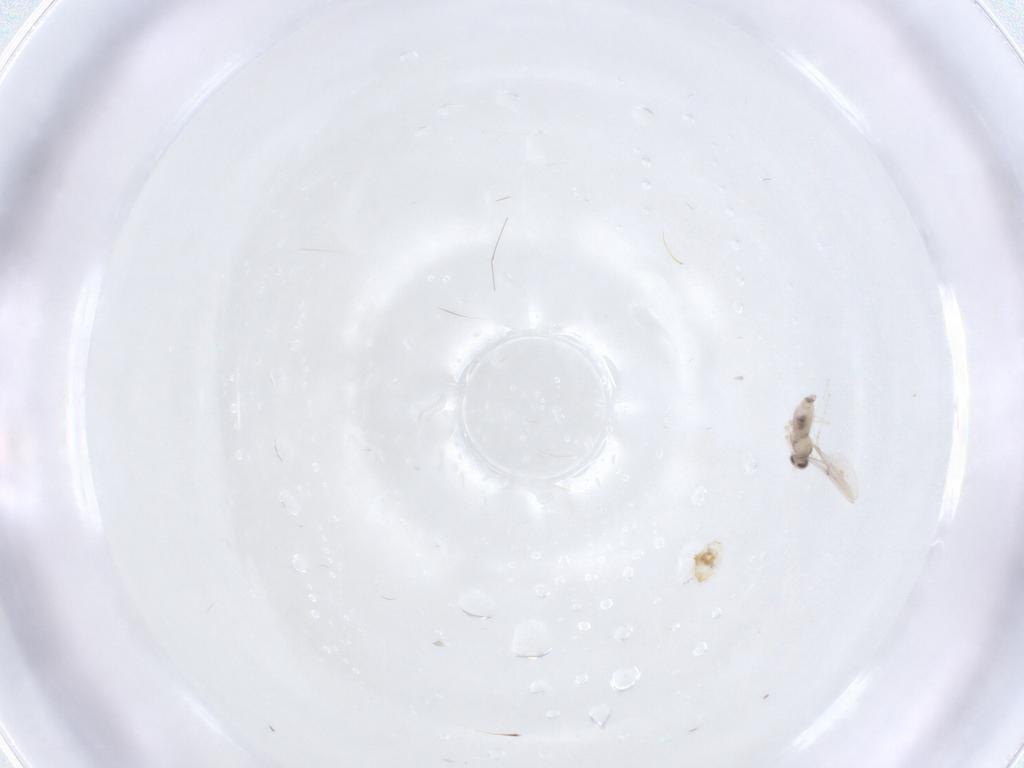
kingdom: Animalia
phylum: Arthropoda
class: Insecta
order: Diptera
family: Cecidomyiidae
